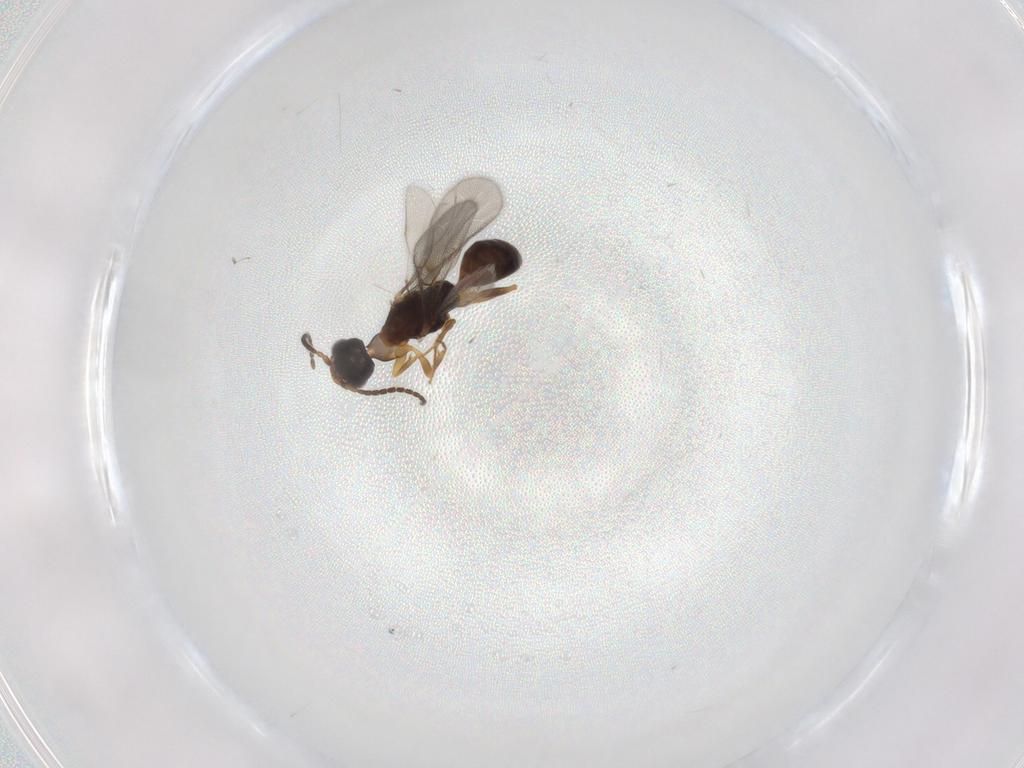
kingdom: Animalia
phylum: Arthropoda
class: Insecta
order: Hymenoptera
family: Bethylidae
